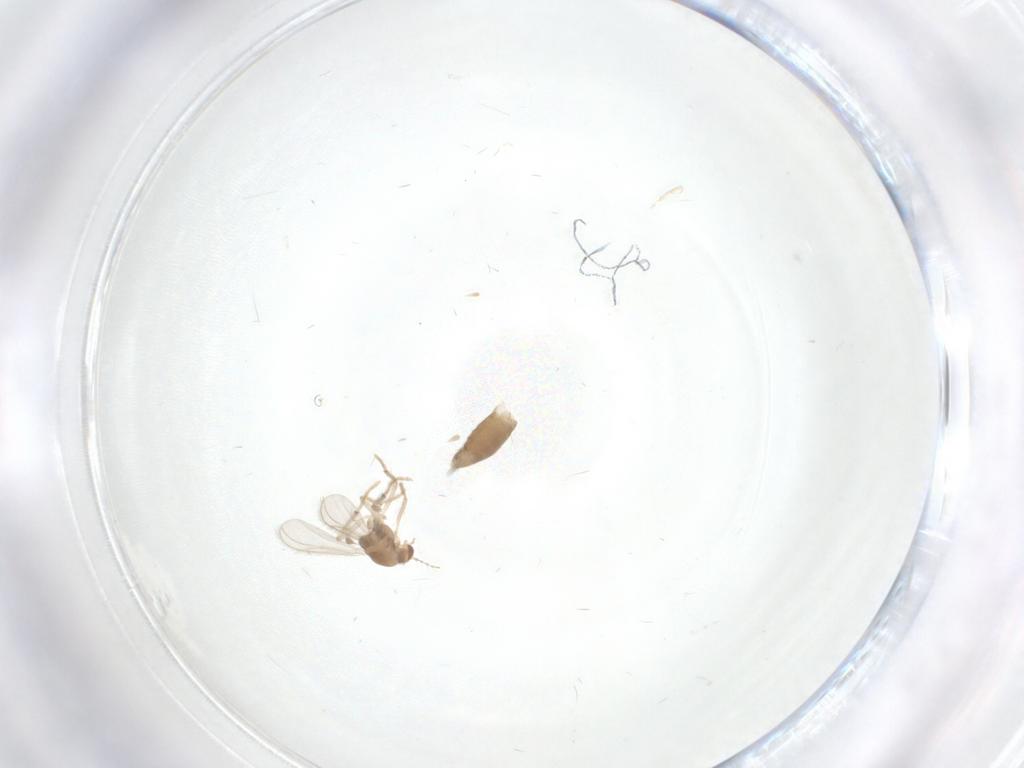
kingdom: Animalia
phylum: Arthropoda
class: Insecta
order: Diptera
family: Chironomidae
